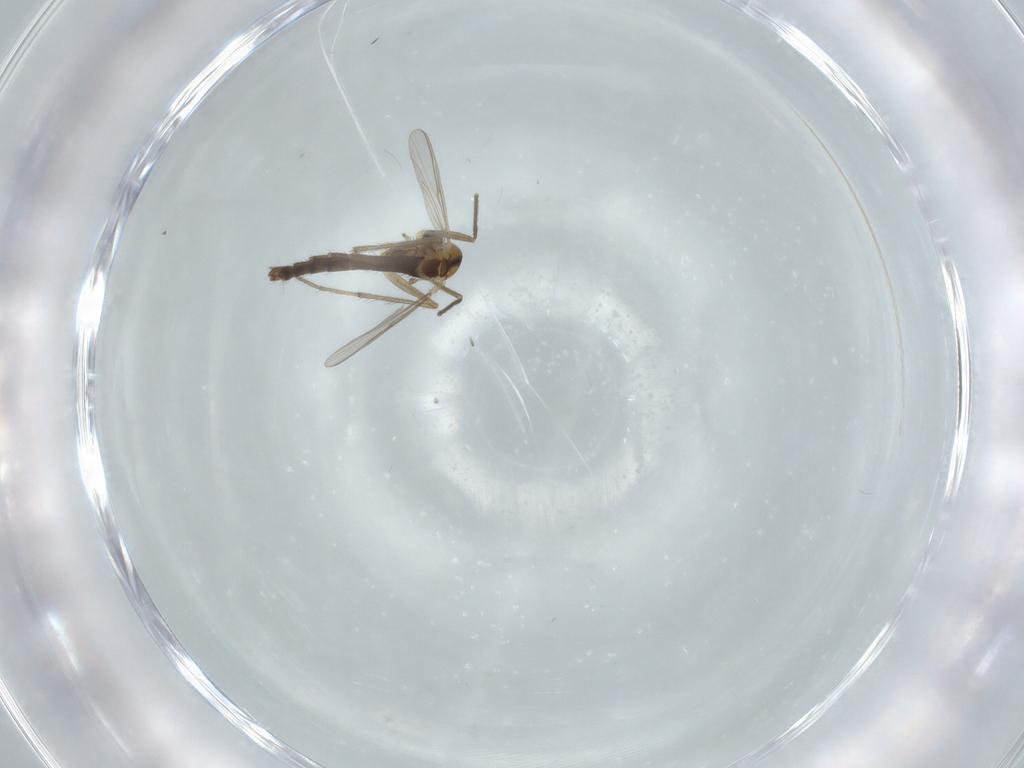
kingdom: Animalia
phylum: Arthropoda
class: Insecta
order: Diptera
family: Chironomidae
